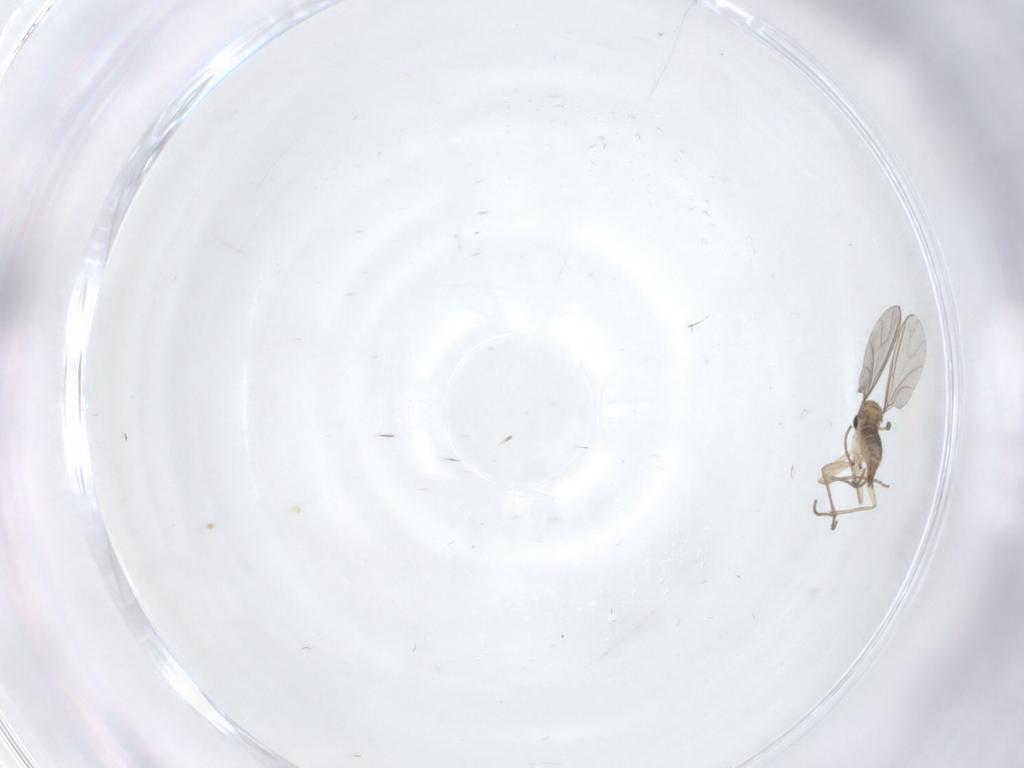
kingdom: Animalia
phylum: Arthropoda
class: Insecta
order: Diptera
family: Sciaridae
